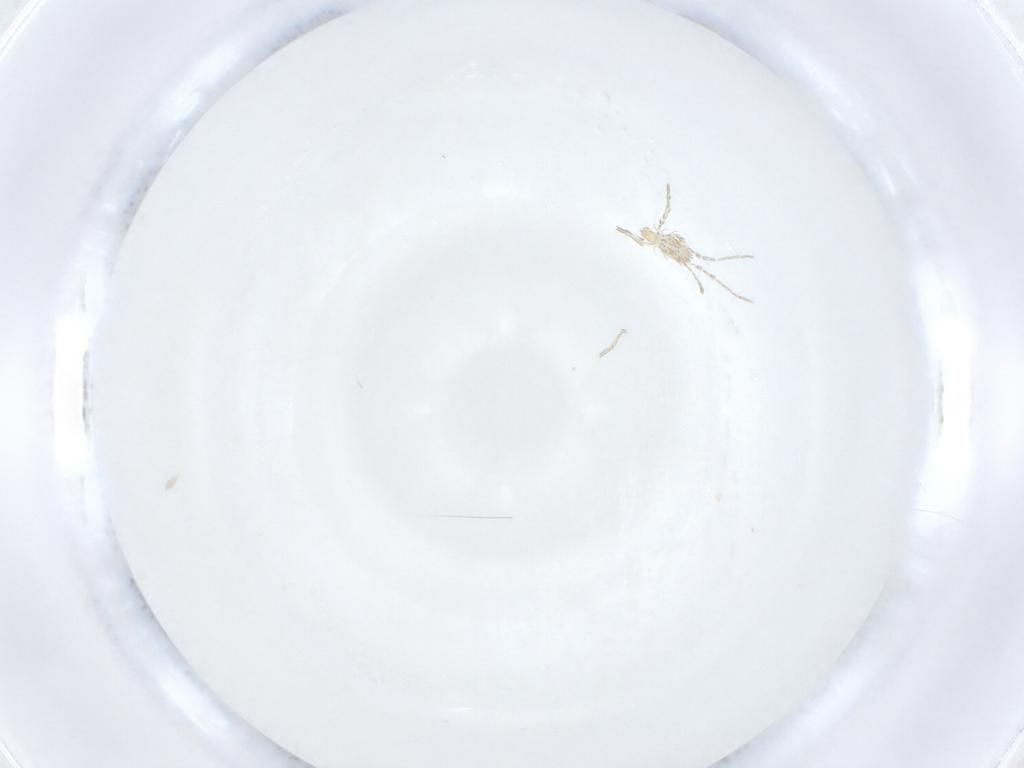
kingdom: Animalia
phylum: Arthropoda
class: Arachnida
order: Trombidiformes
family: Erythraeidae
